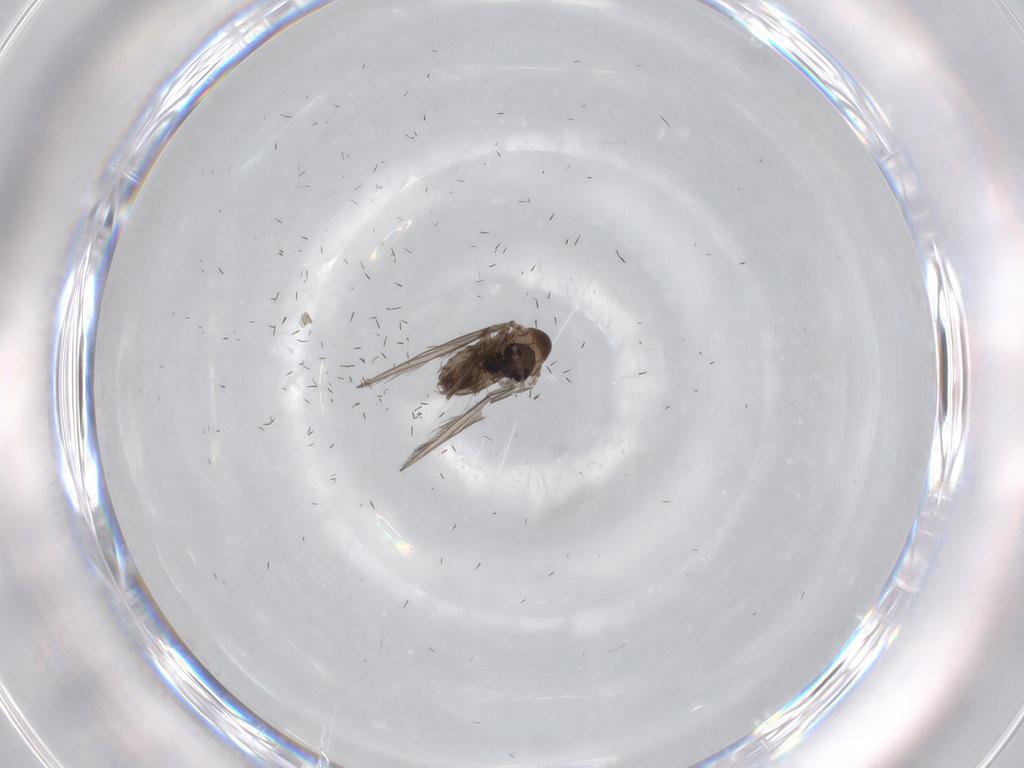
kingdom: Animalia
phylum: Arthropoda
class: Insecta
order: Diptera
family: Psychodidae
